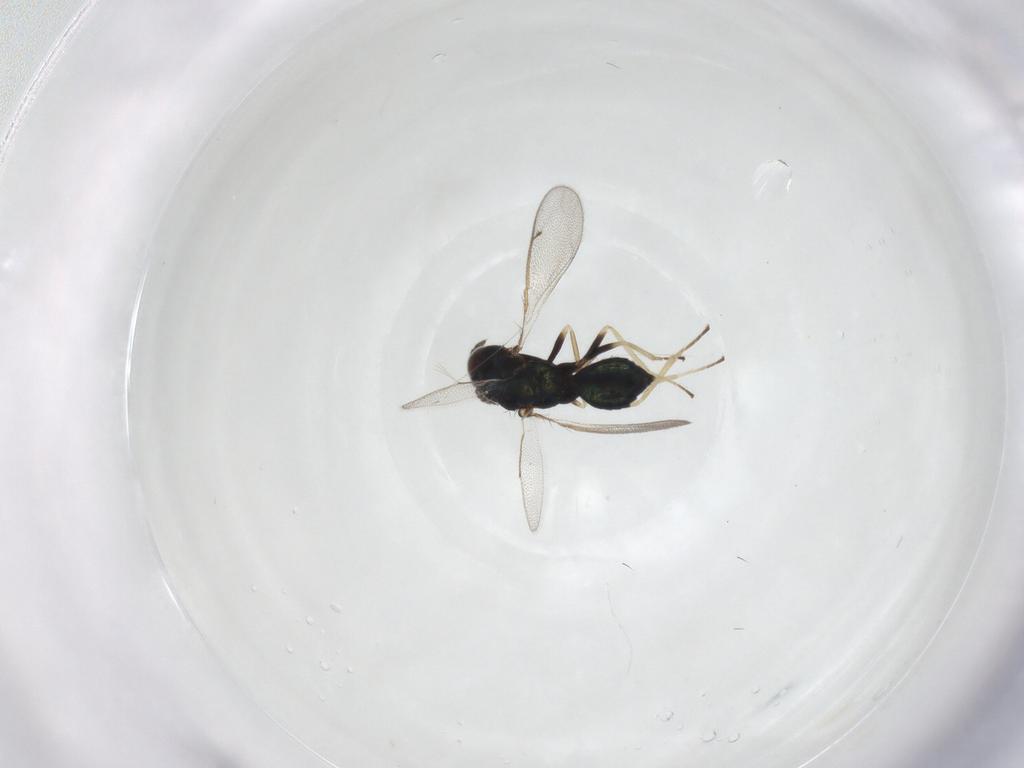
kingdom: Animalia
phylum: Arthropoda
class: Insecta
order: Hymenoptera
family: Eulophidae
